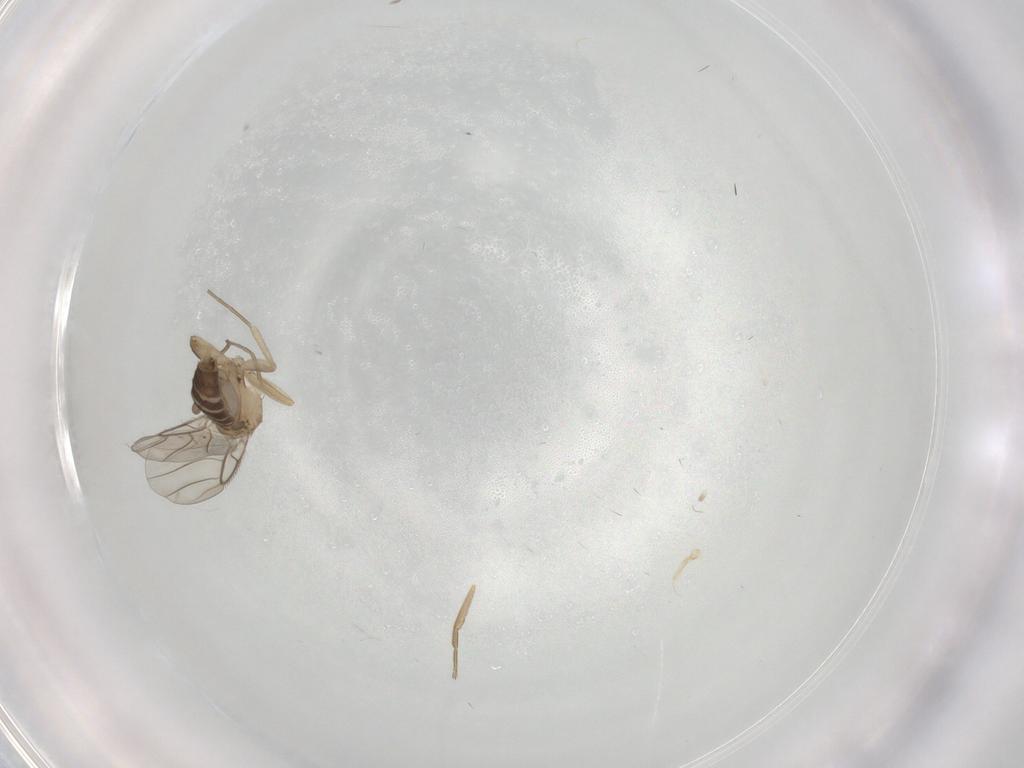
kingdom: Animalia
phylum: Arthropoda
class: Insecta
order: Diptera
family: Phoridae
